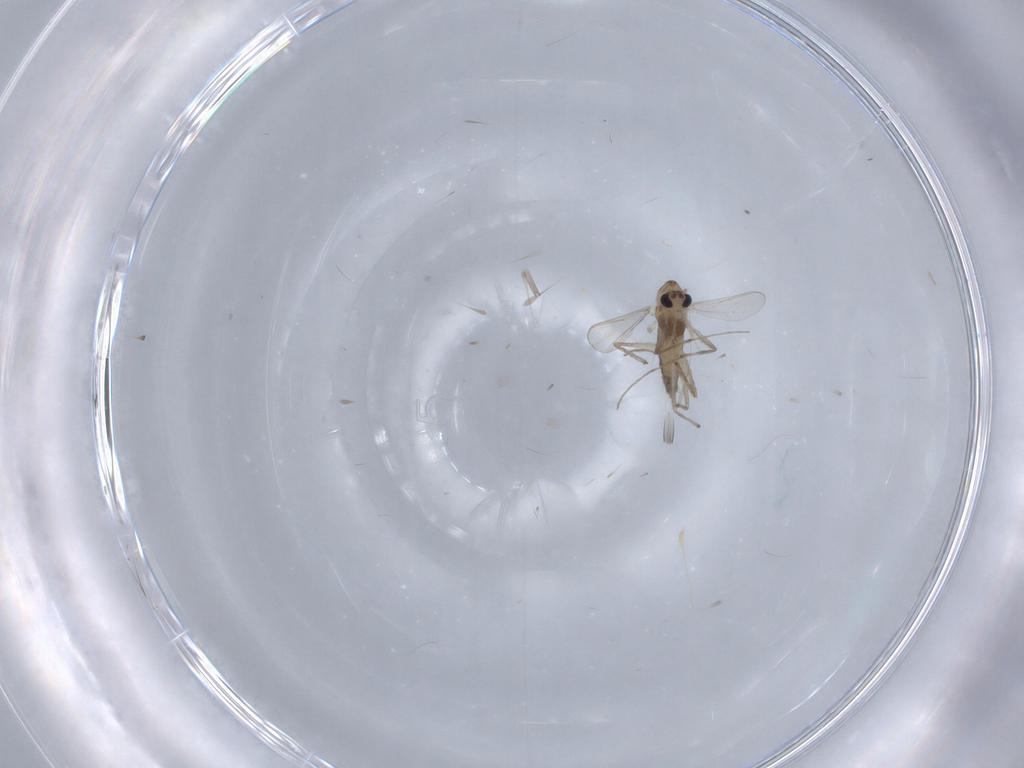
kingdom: Animalia
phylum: Arthropoda
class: Insecta
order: Diptera
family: Chironomidae
